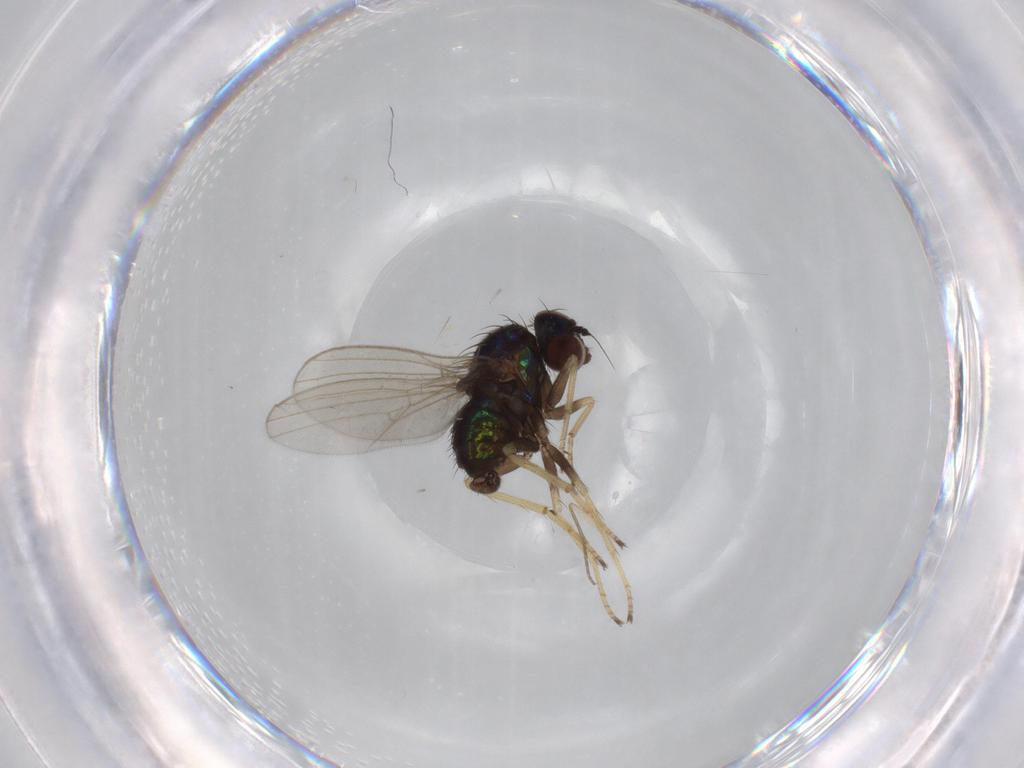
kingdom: Animalia
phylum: Arthropoda
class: Insecta
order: Diptera
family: Dolichopodidae
